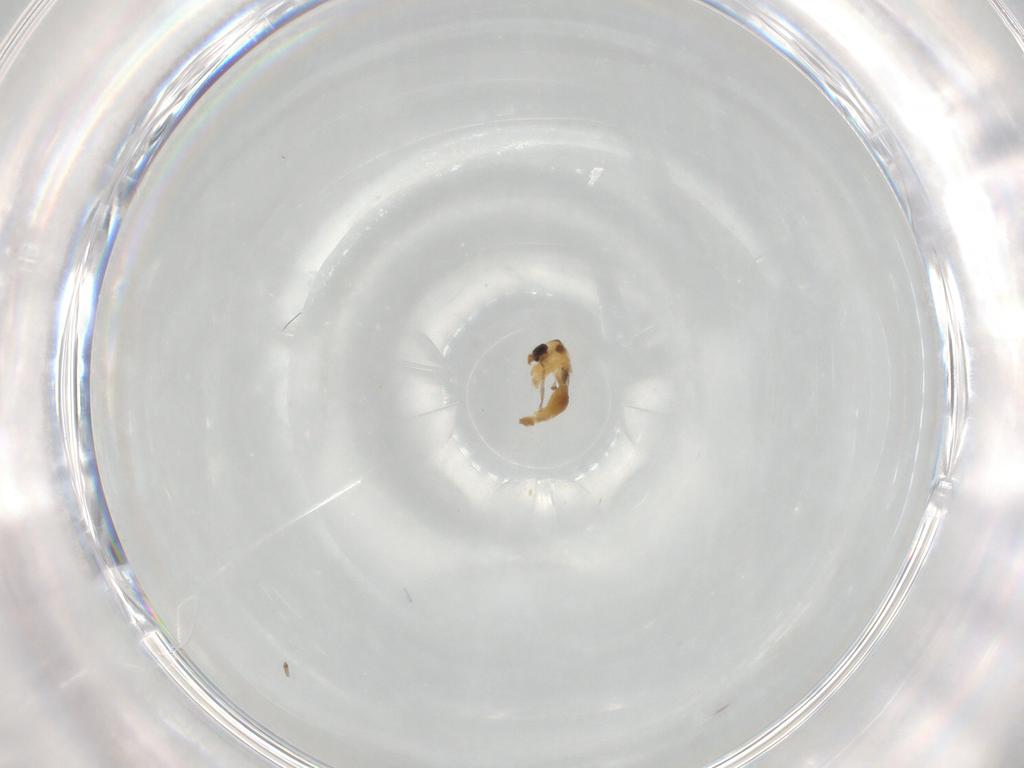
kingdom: Animalia
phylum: Arthropoda
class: Insecta
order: Diptera
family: Chironomidae
